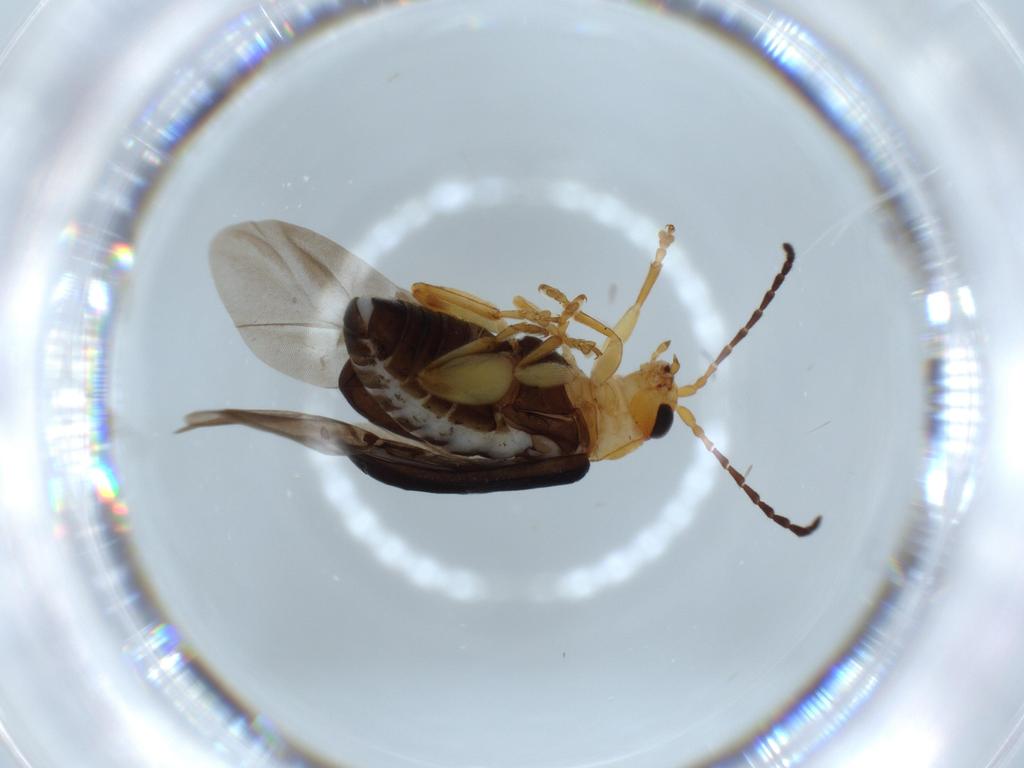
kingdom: Animalia
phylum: Arthropoda
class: Insecta
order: Coleoptera
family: Chrysomelidae
